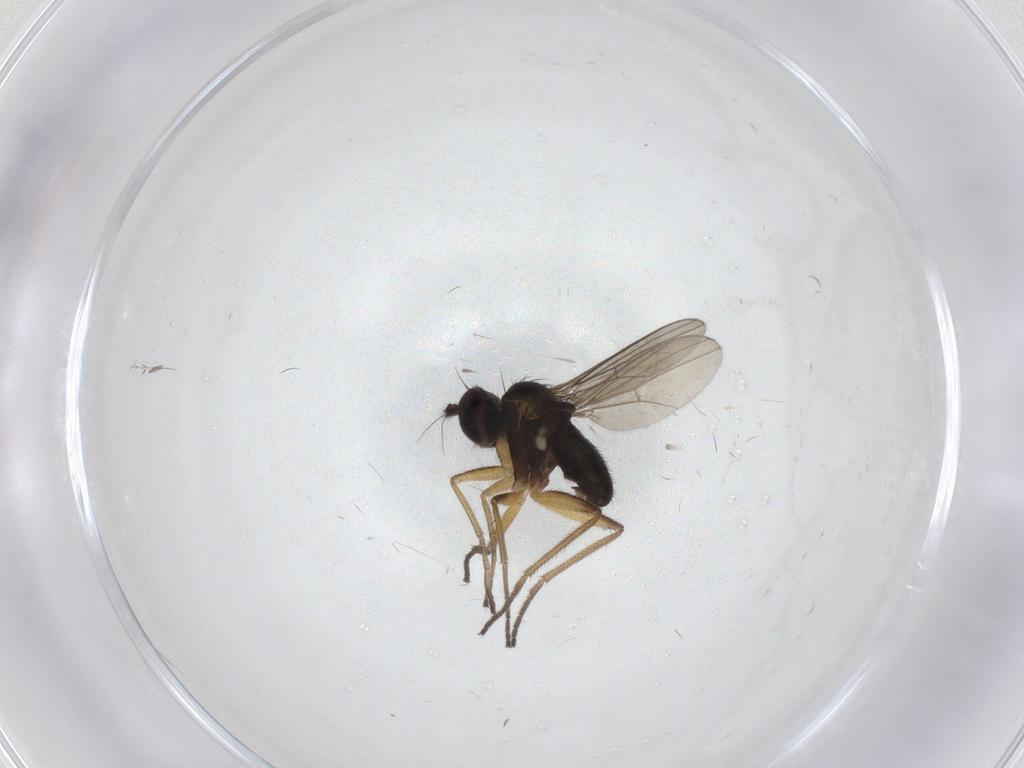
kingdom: Animalia
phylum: Arthropoda
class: Insecta
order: Diptera
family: Dolichopodidae
